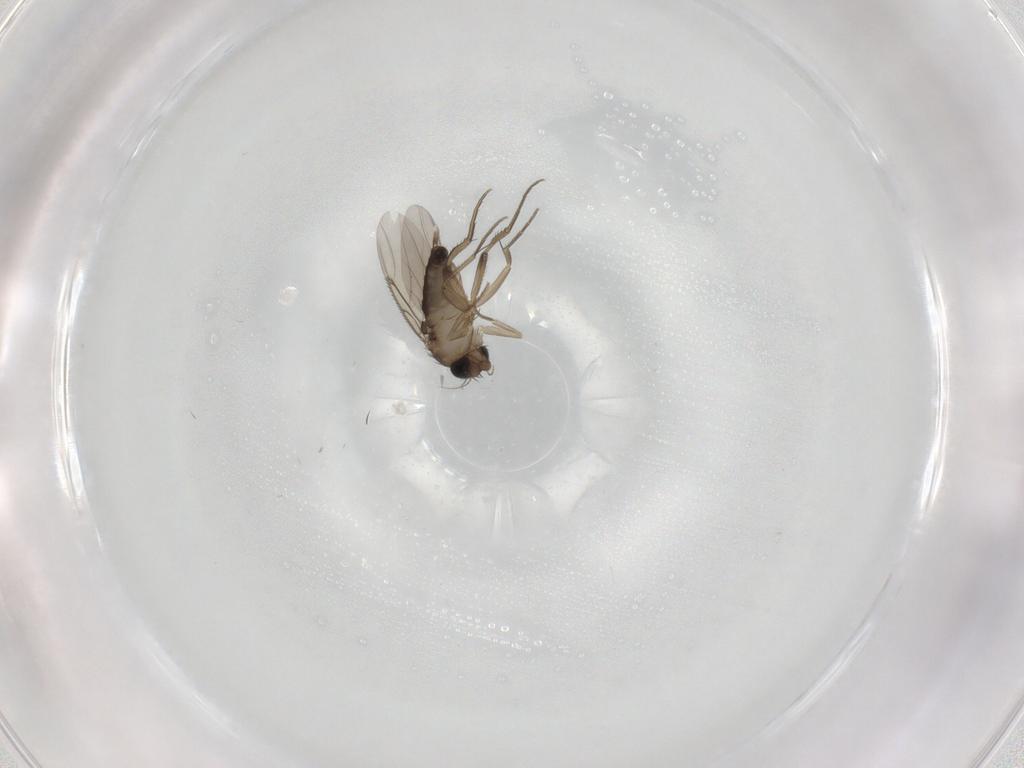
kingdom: Animalia
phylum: Arthropoda
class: Insecta
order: Diptera
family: Phoridae
